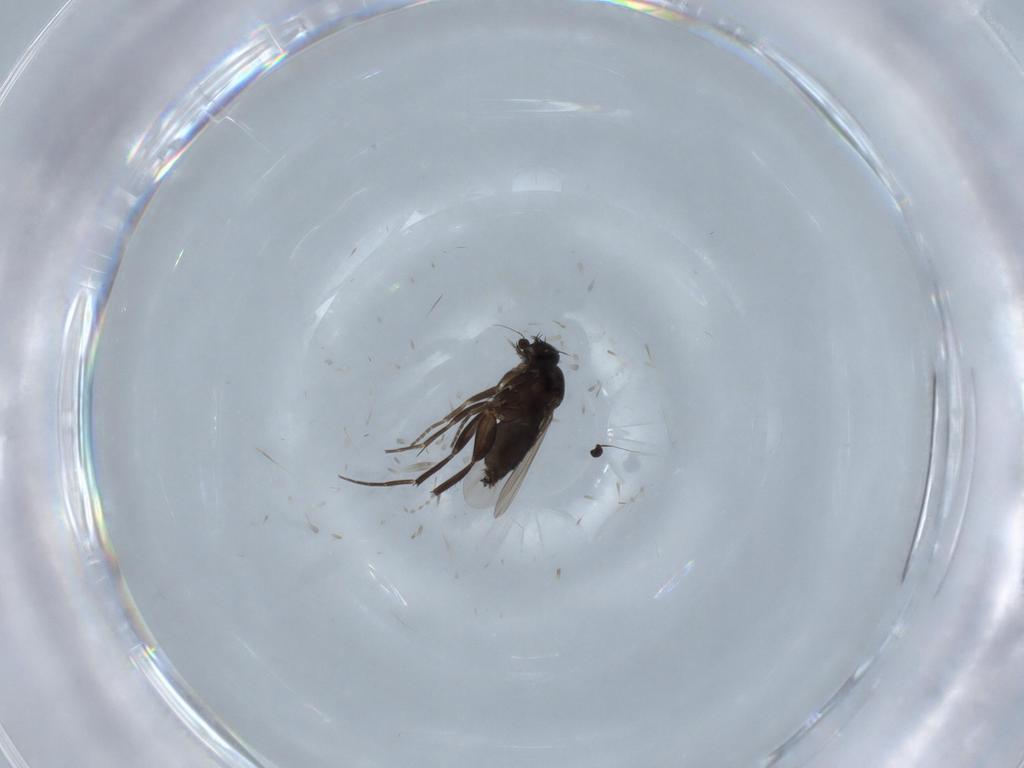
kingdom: Animalia
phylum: Arthropoda
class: Insecta
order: Diptera
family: Phoridae
